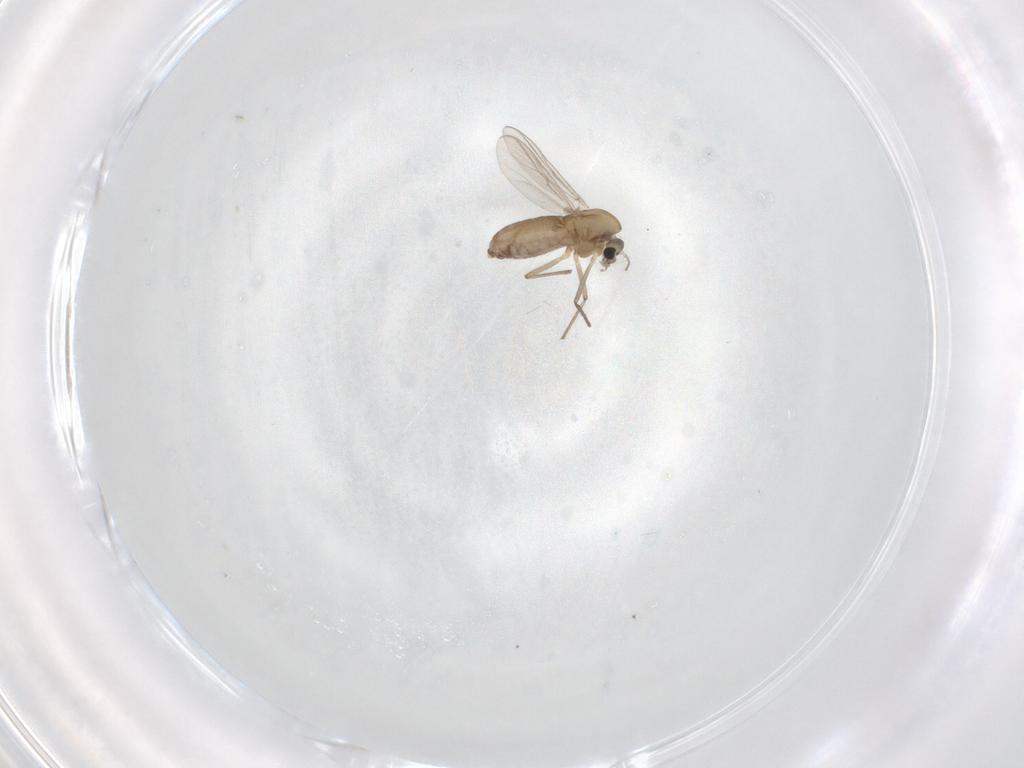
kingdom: Animalia
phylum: Arthropoda
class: Insecta
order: Diptera
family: Chironomidae
